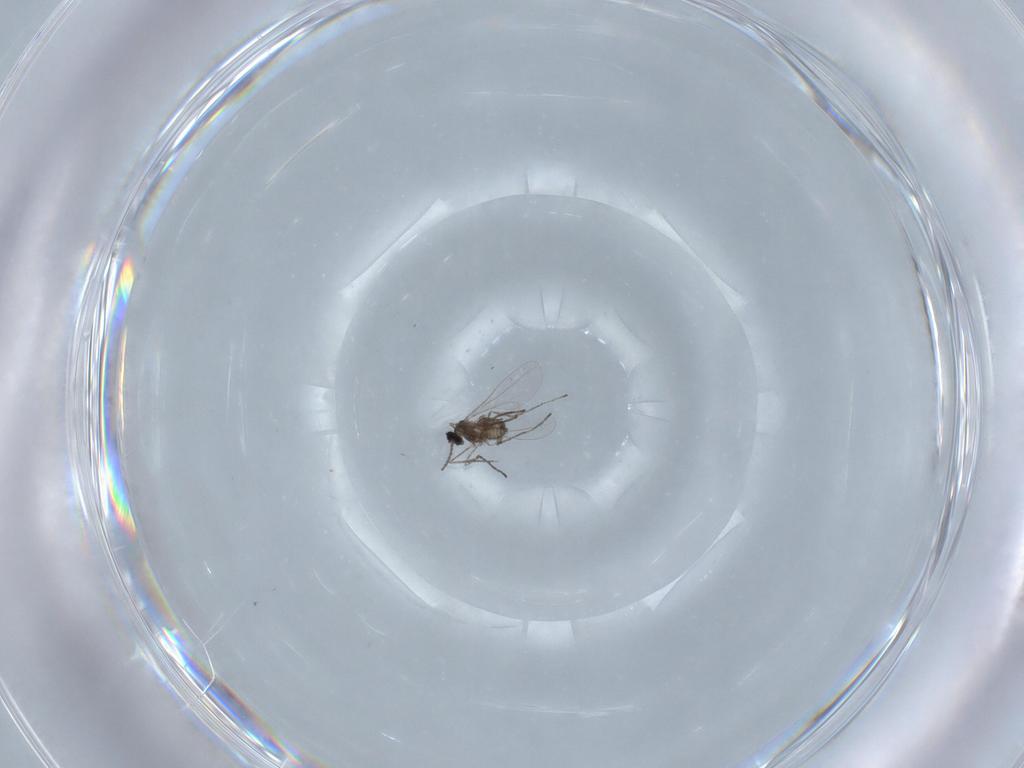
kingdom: Animalia
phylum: Arthropoda
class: Insecta
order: Diptera
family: Cecidomyiidae
